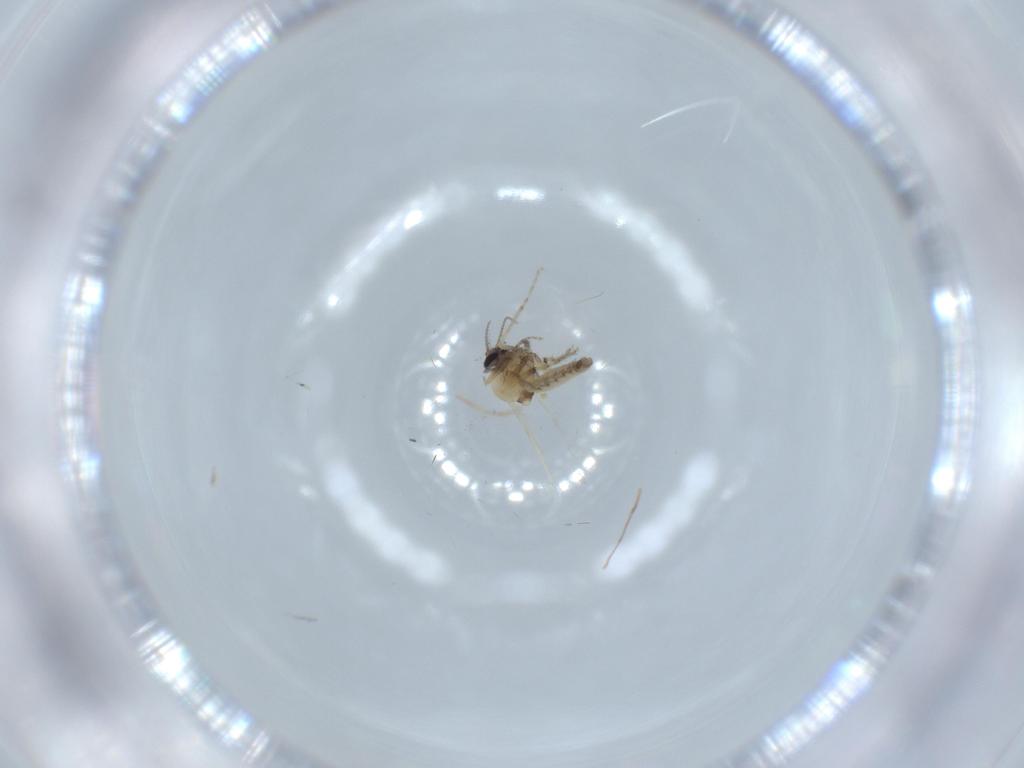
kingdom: Animalia
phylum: Arthropoda
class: Insecta
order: Diptera
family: Ceratopogonidae
